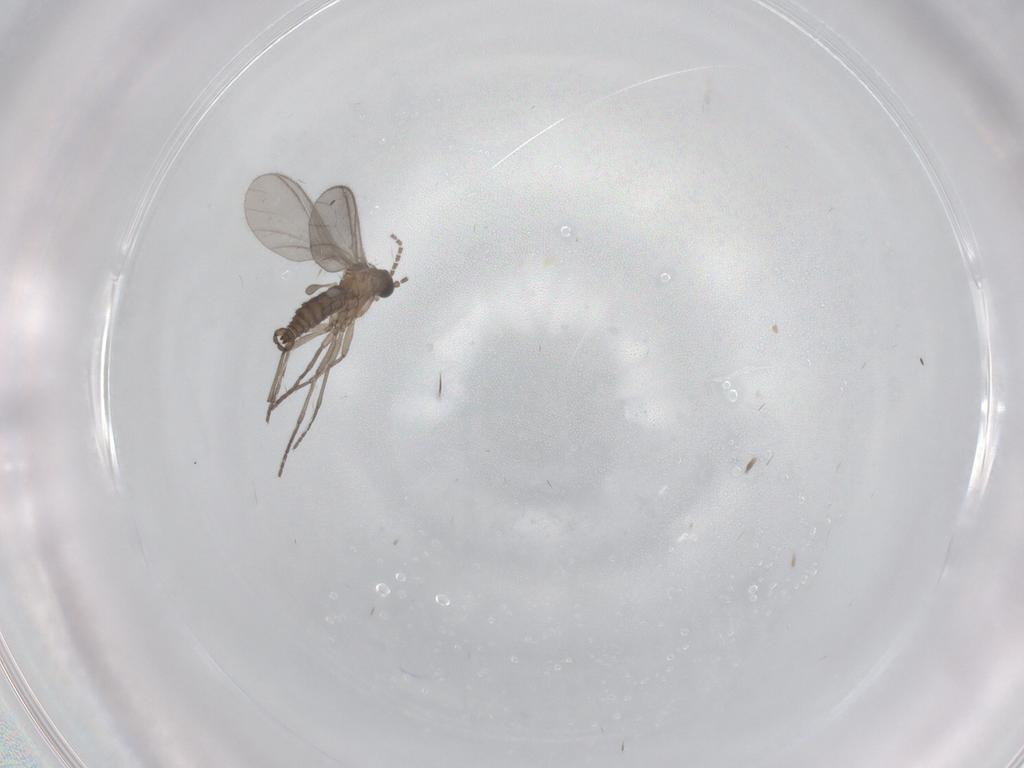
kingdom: Animalia
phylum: Arthropoda
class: Insecta
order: Diptera
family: Sciaridae
